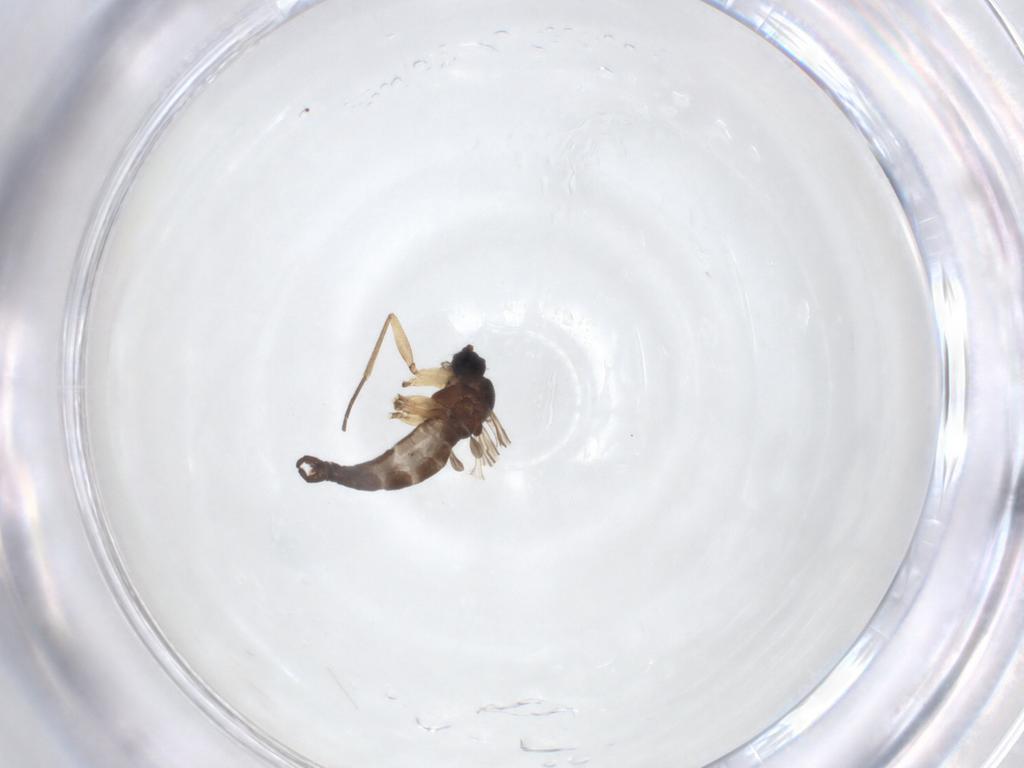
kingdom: Animalia
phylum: Arthropoda
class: Insecta
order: Diptera
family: Sciaridae
